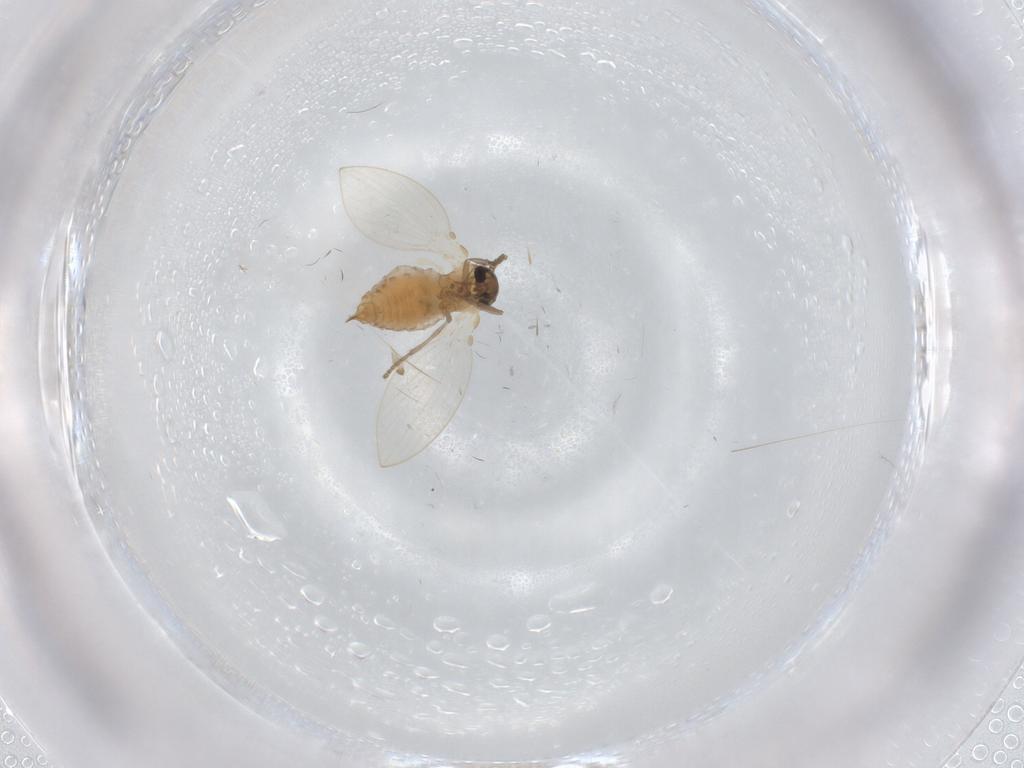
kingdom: Animalia
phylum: Arthropoda
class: Insecta
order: Diptera
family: Psychodidae
